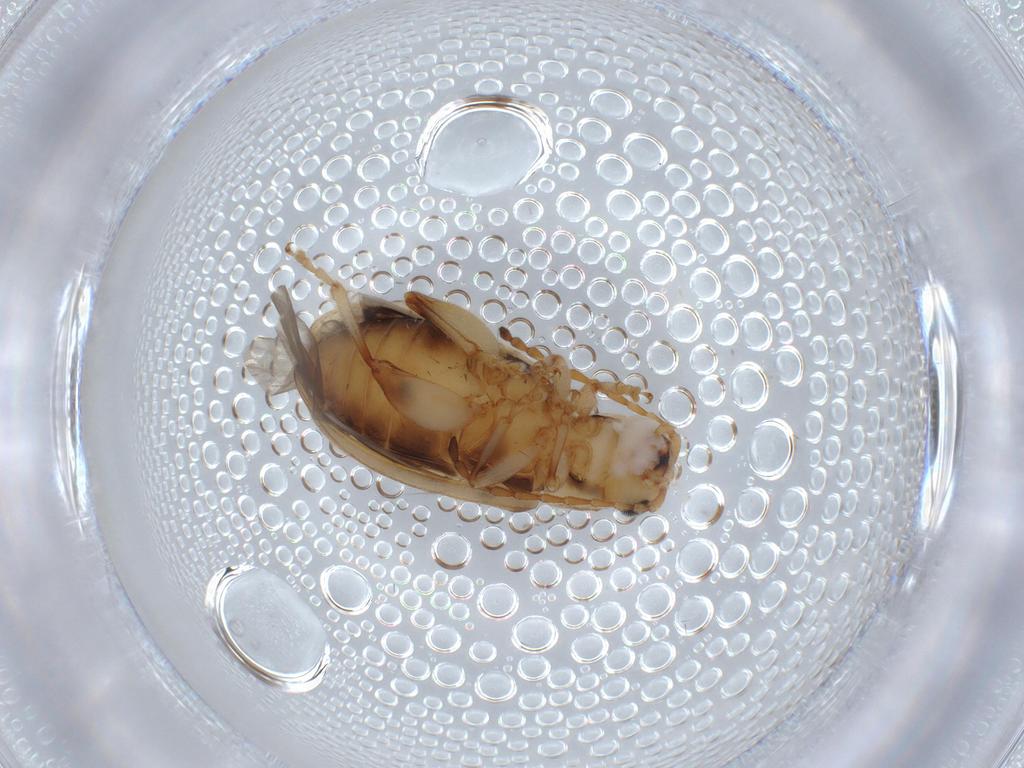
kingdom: Animalia
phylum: Arthropoda
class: Insecta
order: Coleoptera
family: Chrysomelidae
